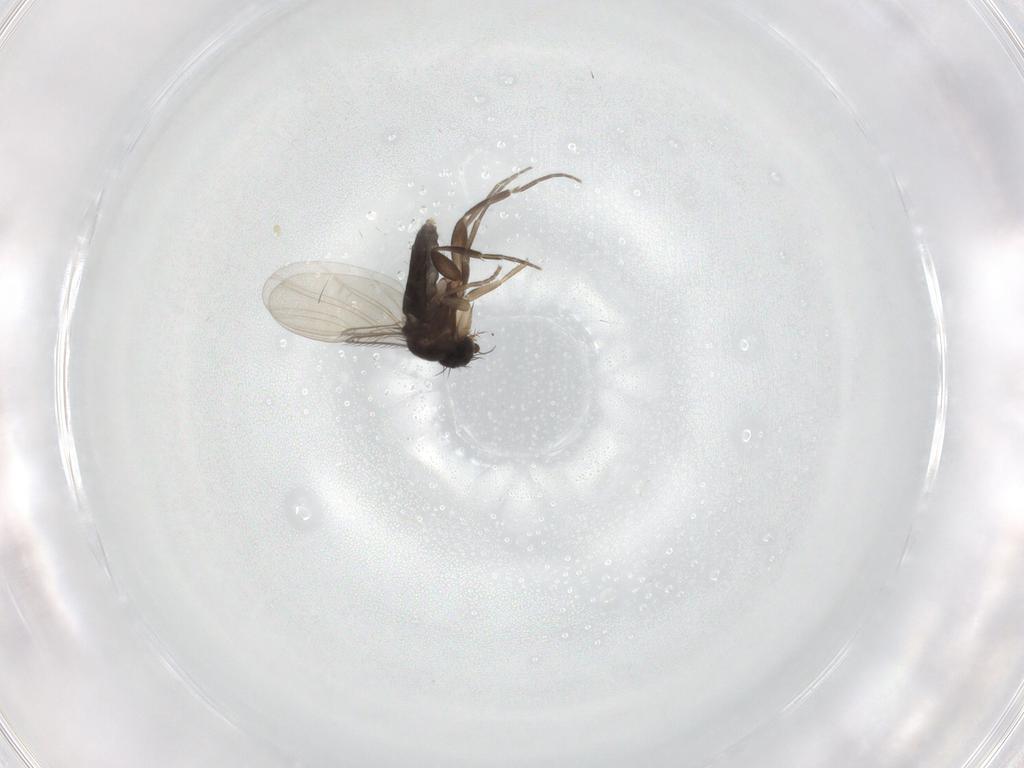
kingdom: Animalia
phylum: Arthropoda
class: Insecta
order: Diptera
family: Phoridae
